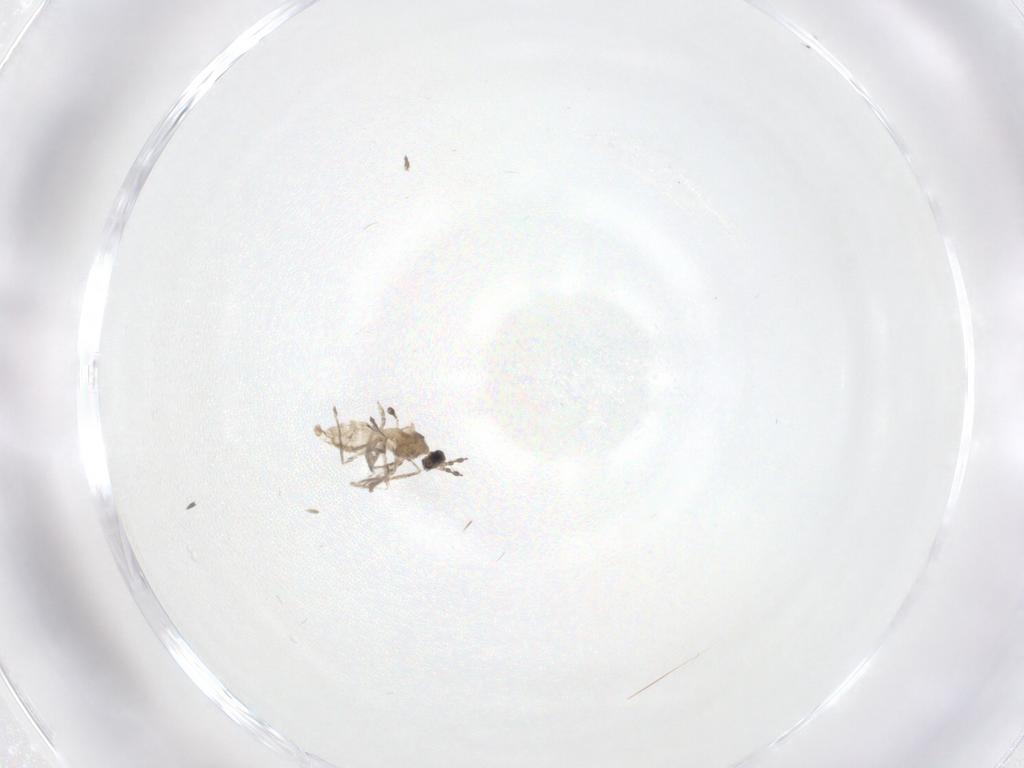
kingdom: Animalia
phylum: Arthropoda
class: Insecta
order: Diptera
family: Cecidomyiidae
